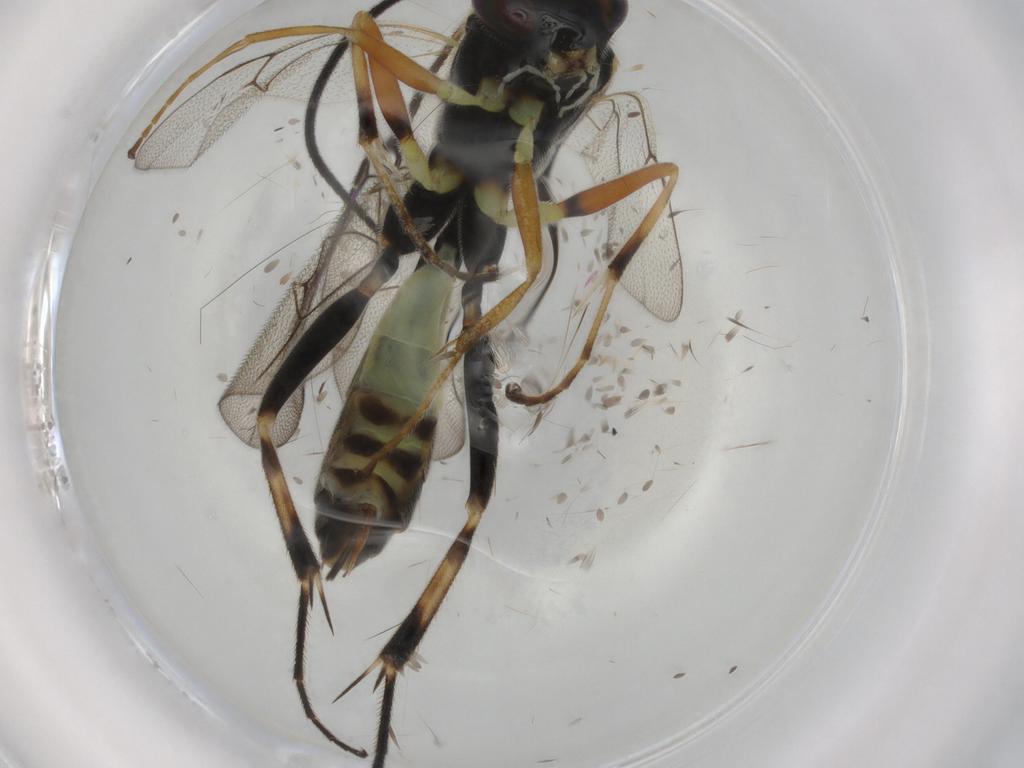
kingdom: Animalia
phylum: Arthropoda
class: Insecta
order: Hymenoptera
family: Ichneumonidae
